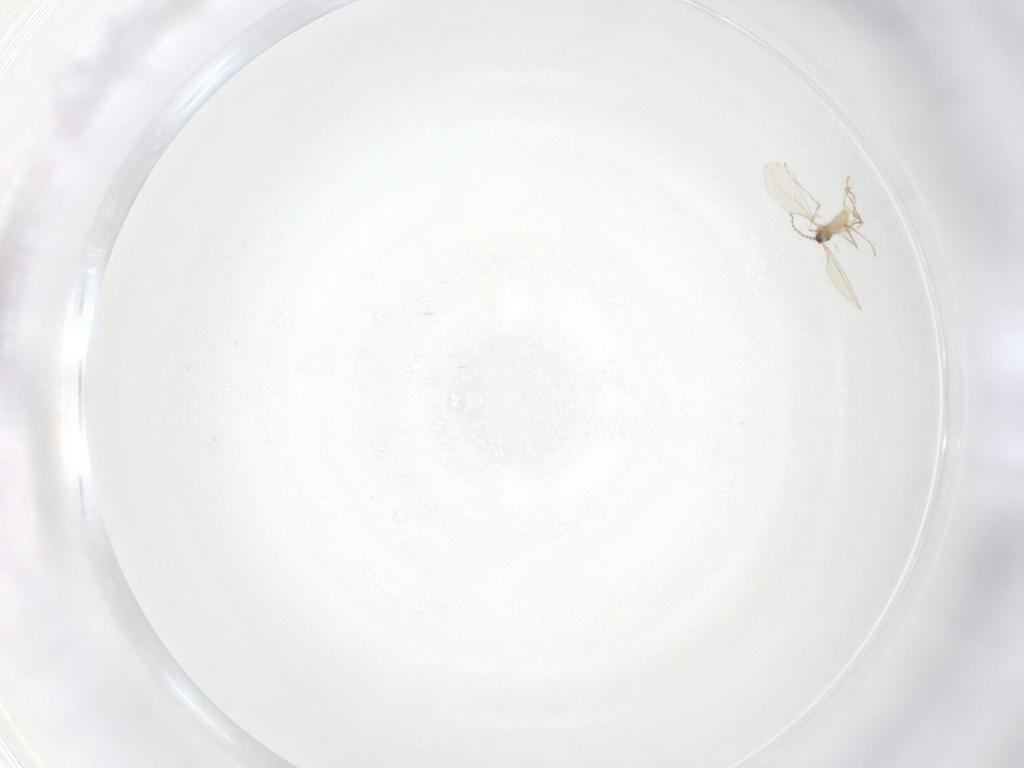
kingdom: Animalia
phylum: Arthropoda
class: Insecta
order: Diptera
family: Cecidomyiidae
